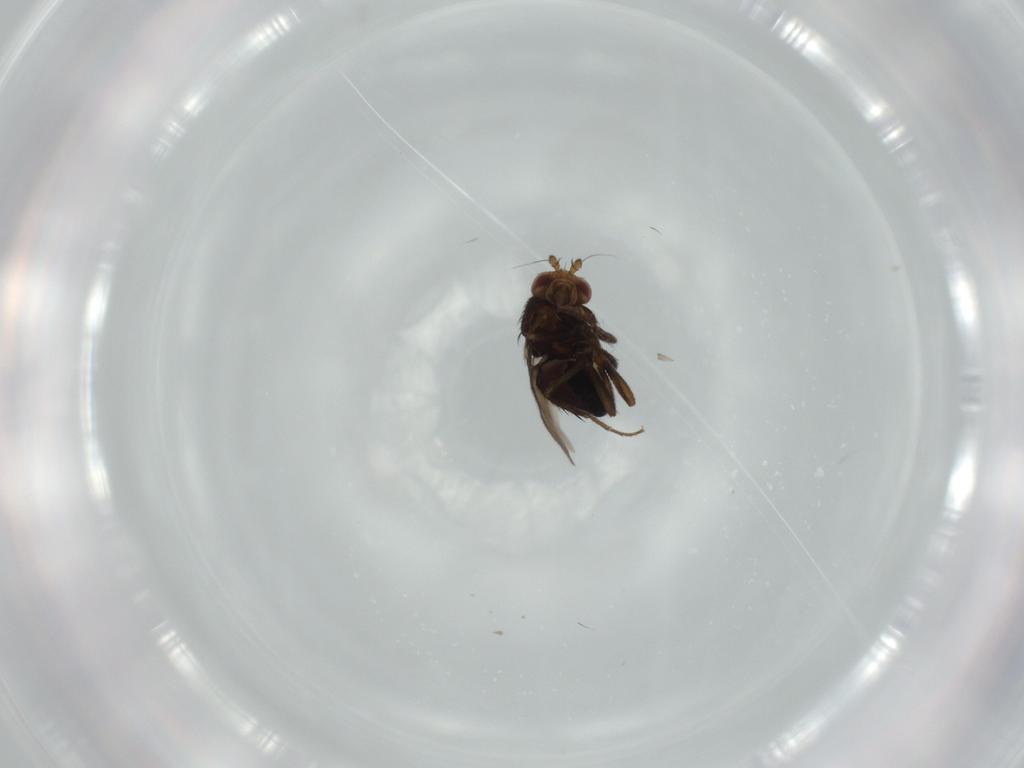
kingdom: Animalia
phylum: Arthropoda
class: Insecta
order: Diptera
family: Sphaeroceridae
